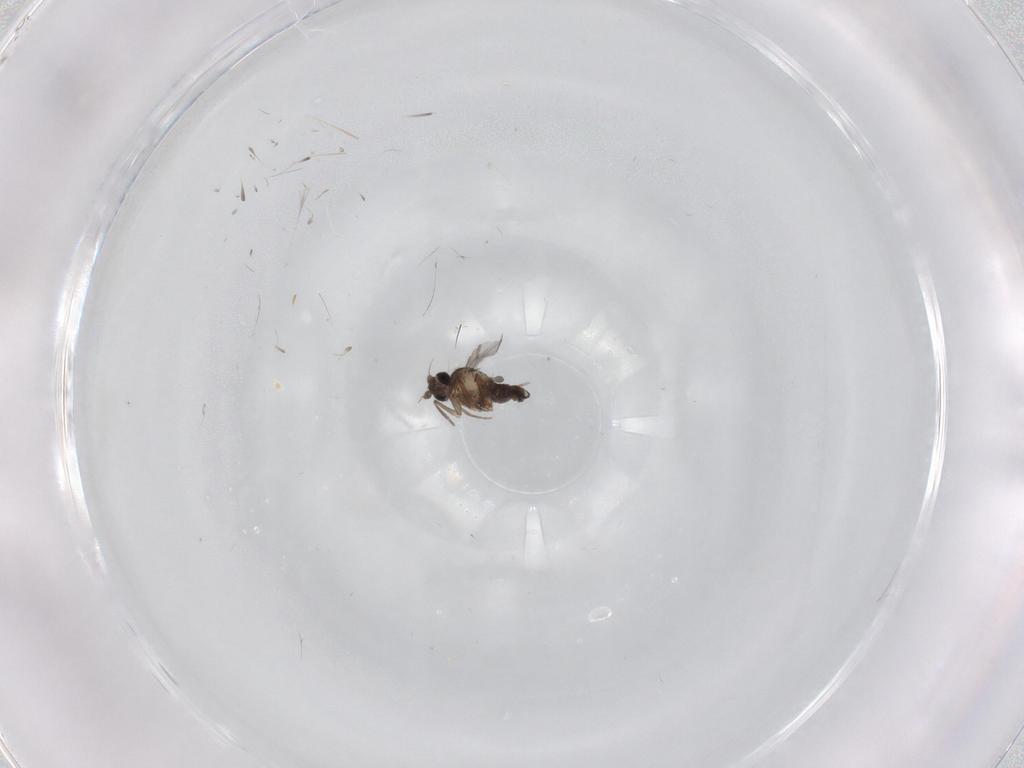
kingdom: Animalia
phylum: Arthropoda
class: Insecta
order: Diptera
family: Phoridae
